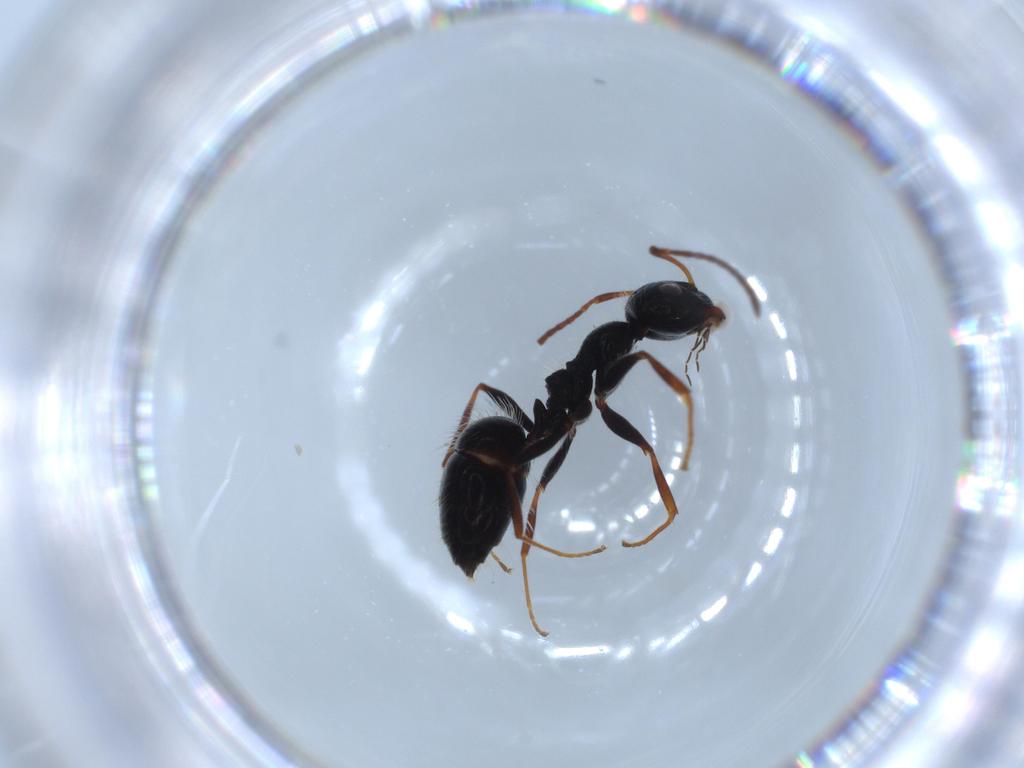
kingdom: Animalia
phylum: Arthropoda
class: Insecta
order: Hymenoptera
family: Formicidae
